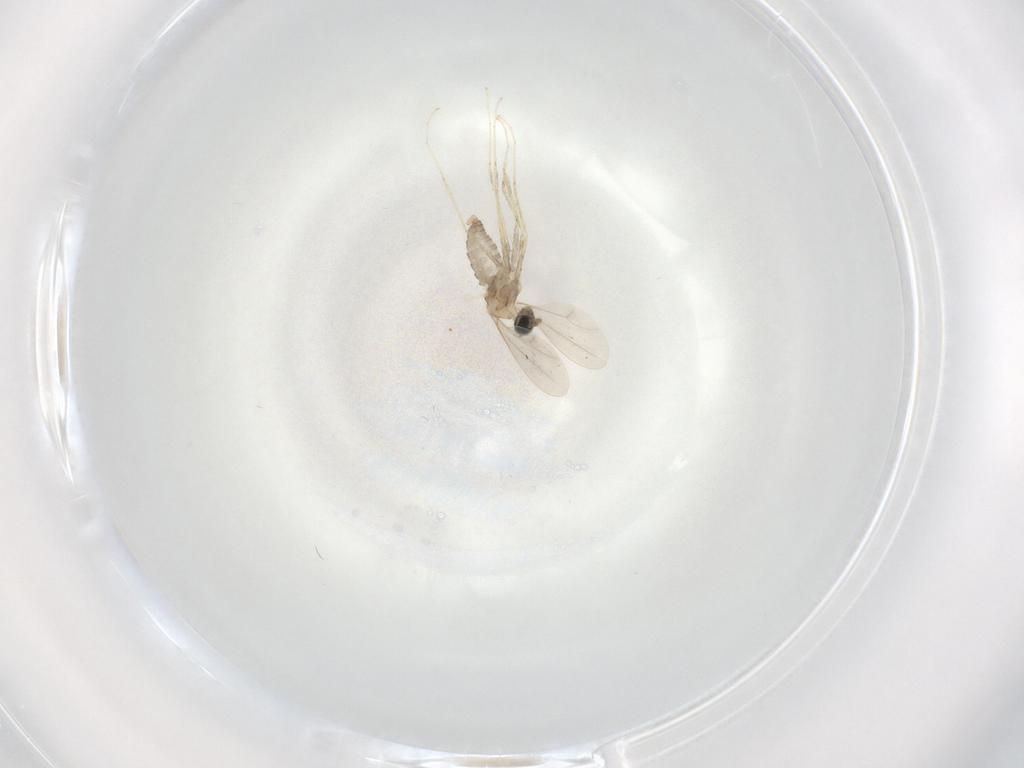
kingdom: Animalia
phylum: Arthropoda
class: Insecta
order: Diptera
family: Cecidomyiidae
